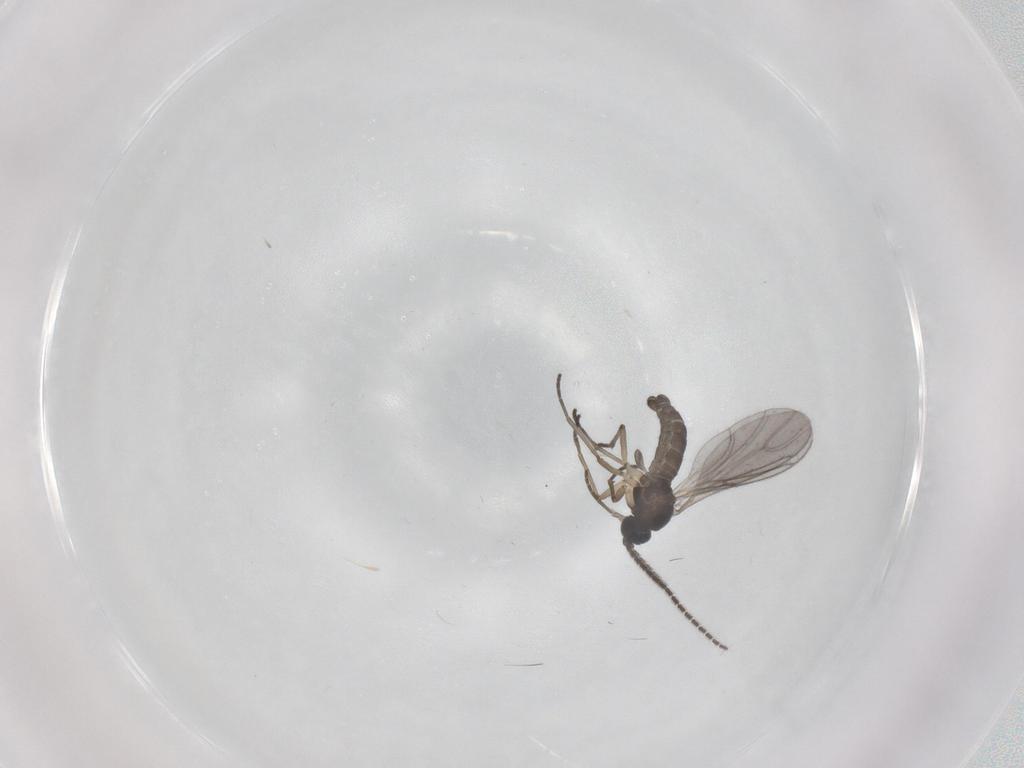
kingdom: Animalia
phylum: Arthropoda
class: Insecta
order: Diptera
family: Sciaridae
